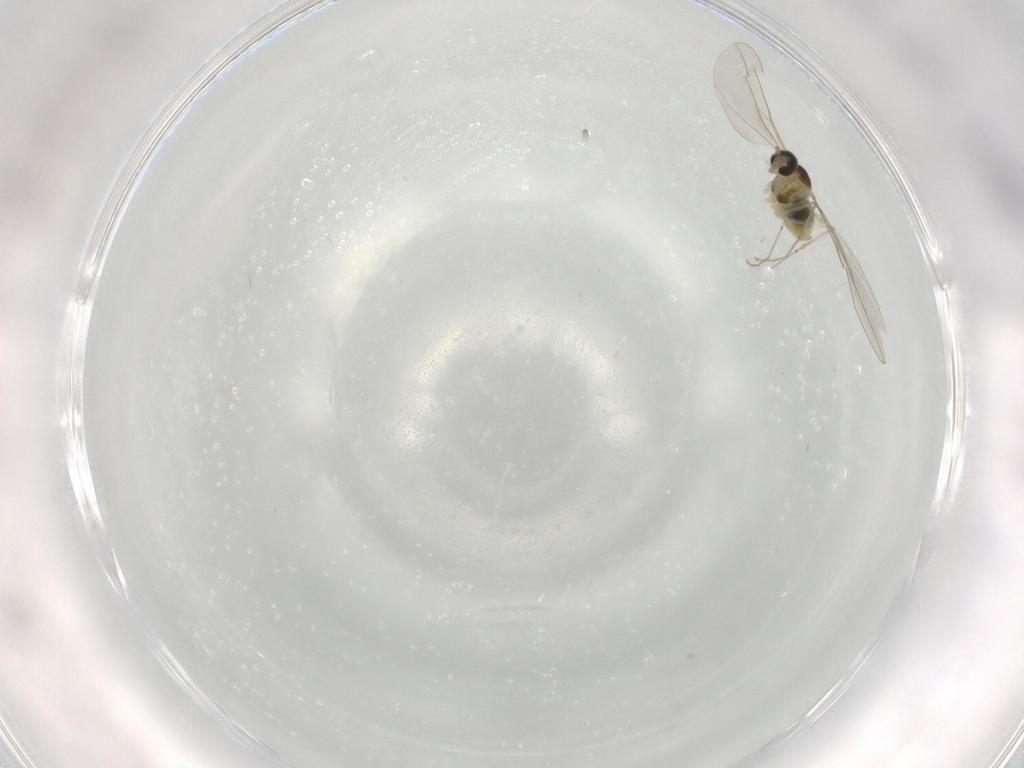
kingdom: Animalia
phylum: Arthropoda
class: Insecta
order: Diptera
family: Cecidomyiidae
